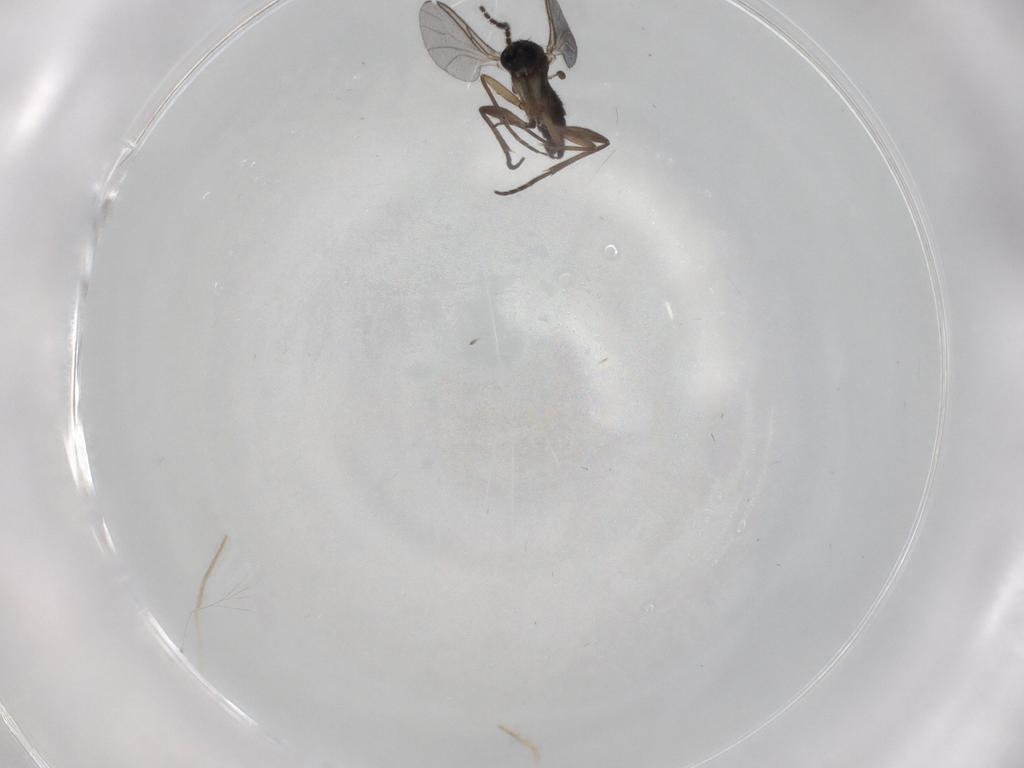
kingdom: Animalia
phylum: Arthropoda
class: Insecta
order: Diptera
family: Sciaridae
